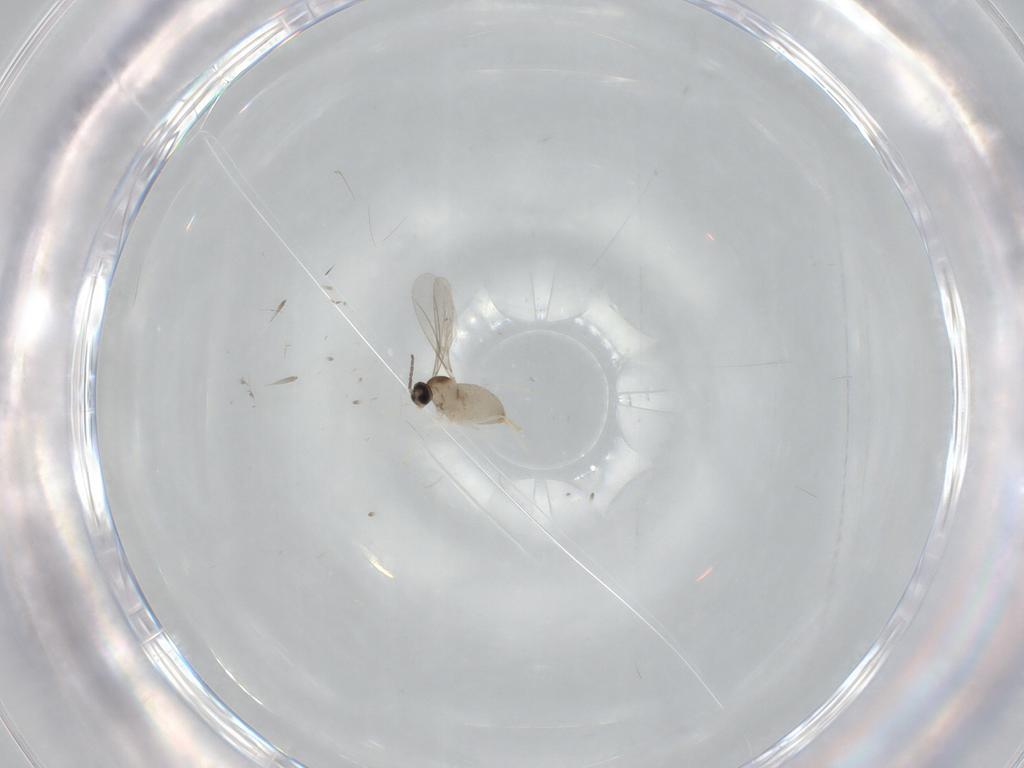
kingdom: Animalia
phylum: Arthropoda
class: Insecta
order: Diptera
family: Cecidomyiidae
